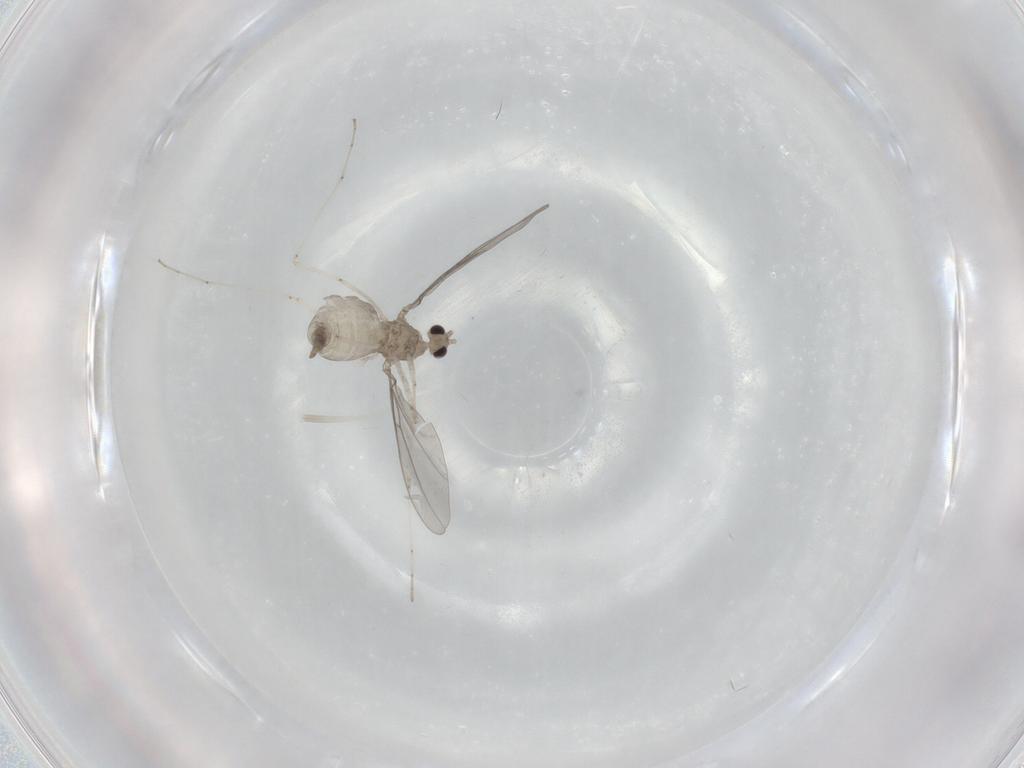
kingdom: Animalia
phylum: Arthropoda
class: Insecta
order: Diptera
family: Cecidomyiidae
